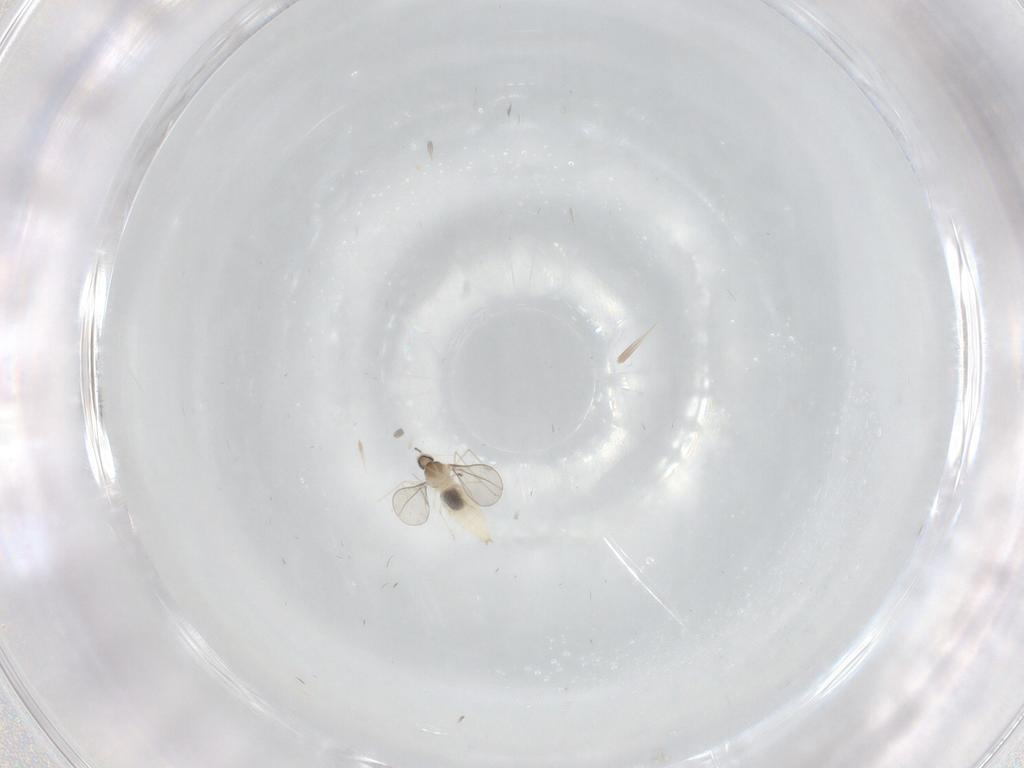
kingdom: Animalia
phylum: Arthropoda
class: Insecta
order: Diptera
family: Cecidomyiidae
